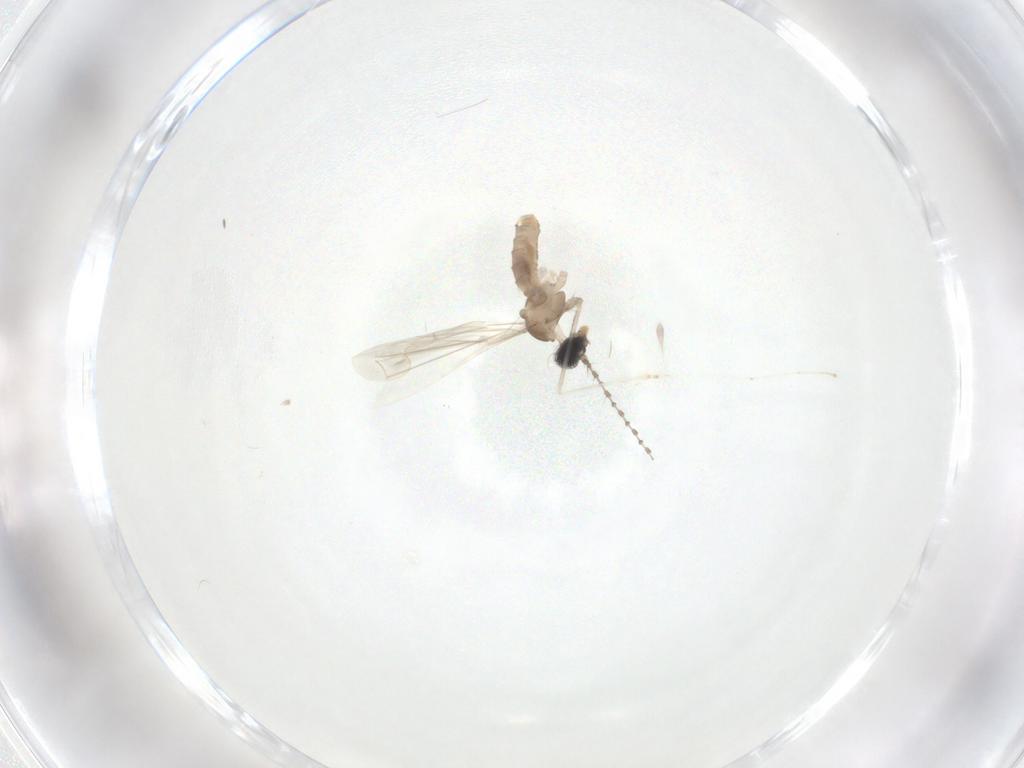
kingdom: Animalia
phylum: Arthropoda
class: Insecta
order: Diptera
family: Cecidomyiidae
